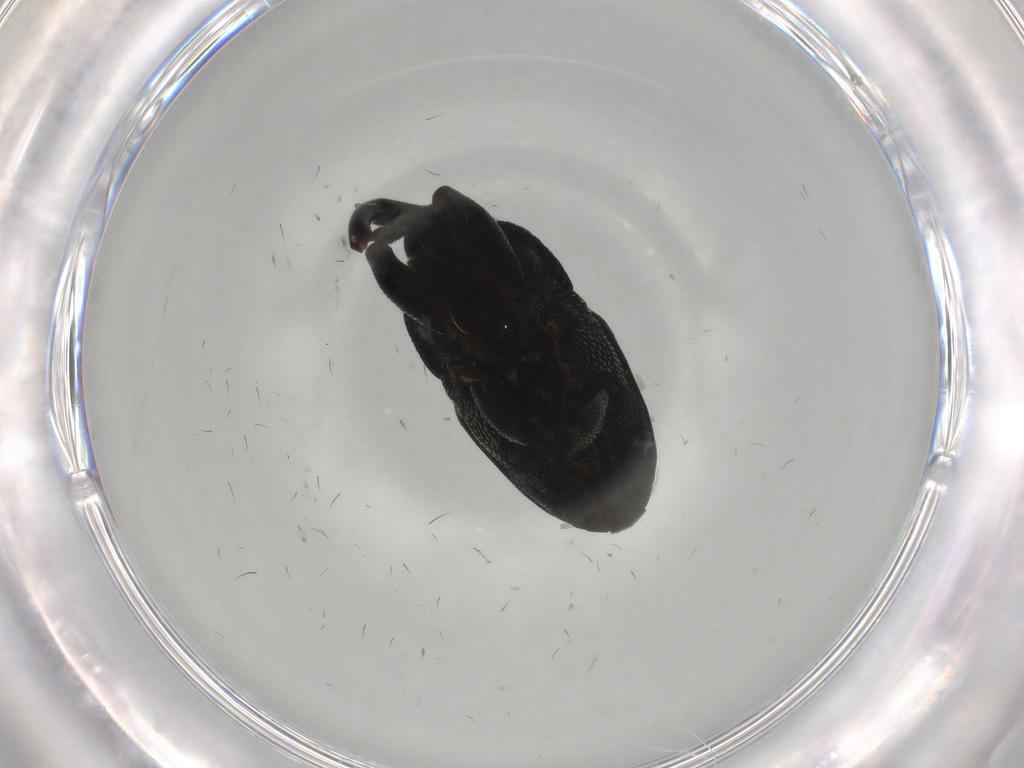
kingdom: Animalia
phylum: Arthropoda
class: Insecta
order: Coleoptera
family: Curculionidae
